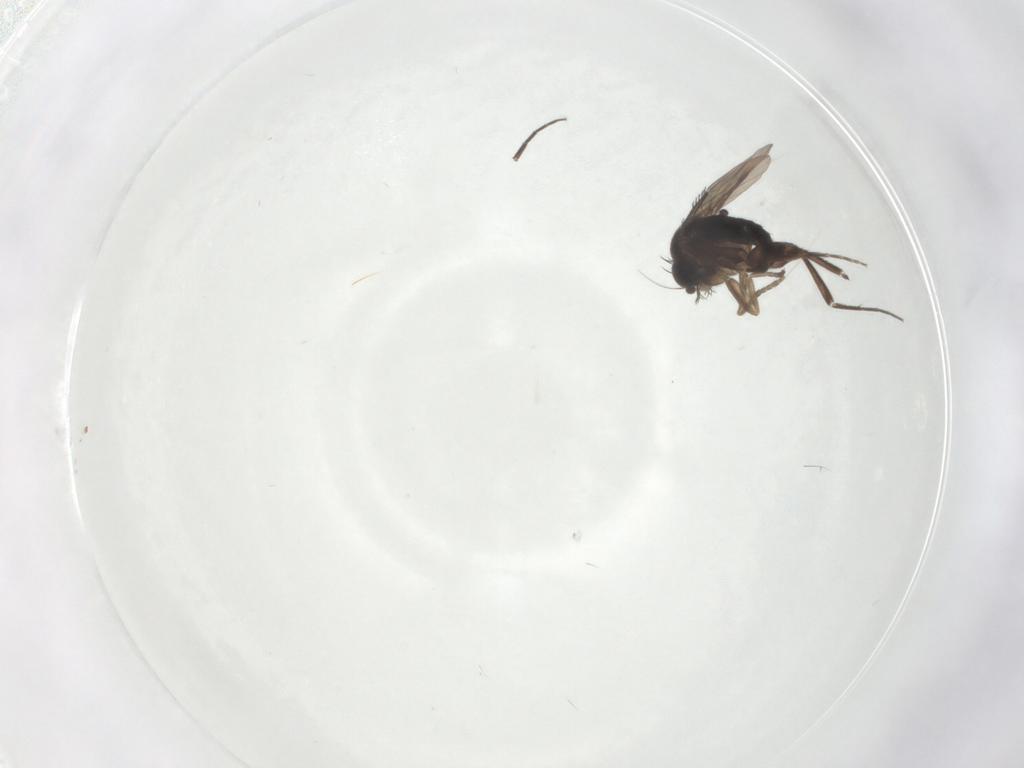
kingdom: Animalia
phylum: Arthropoda
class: Insecta
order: Diptera
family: Phoridae
